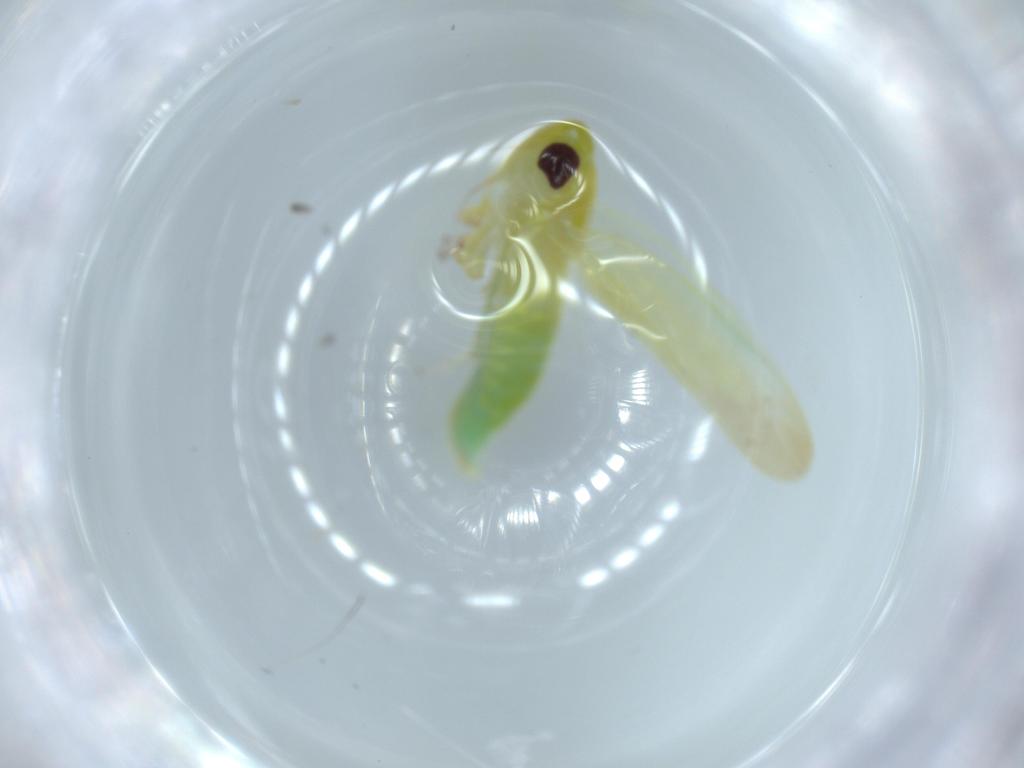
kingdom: Animalia
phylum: Arthropoda
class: Insecta
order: Hemiptera
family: Cicadellidae
